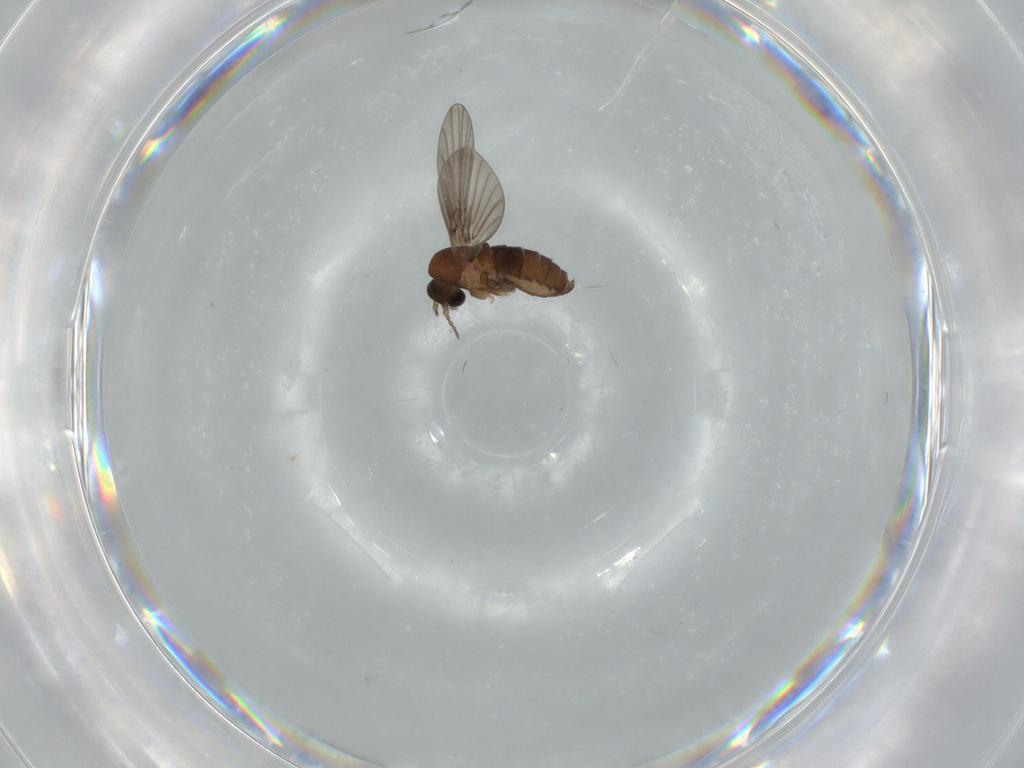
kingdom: Animalia
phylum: Arthropoda
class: Insecta
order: Diptera
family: Psychodidae
